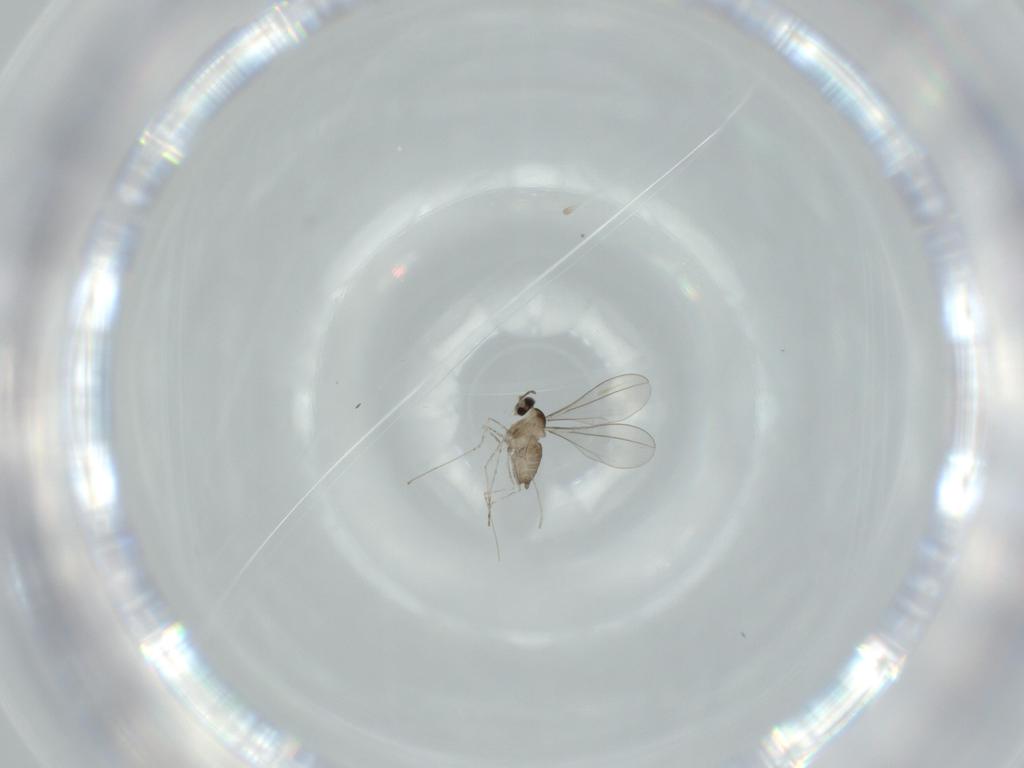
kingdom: Animalia
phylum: Arthropoda
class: Insecta
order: Diptera
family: Cecidomyiidae
